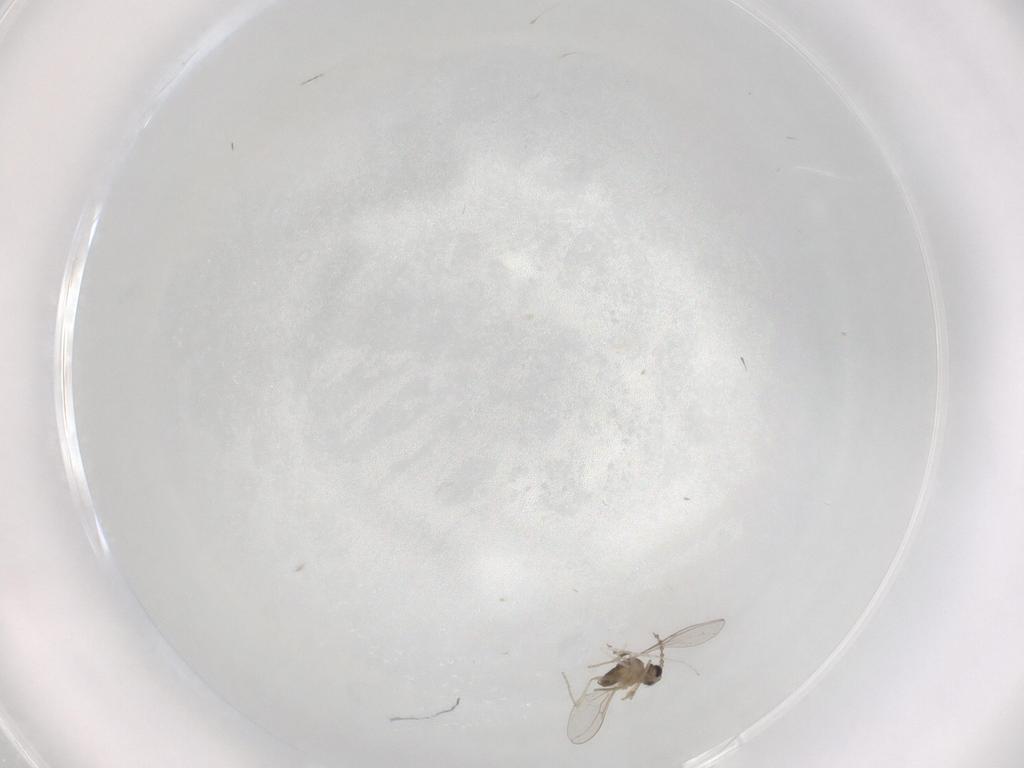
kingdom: Animalia
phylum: Arthropoda
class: Insecta
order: Diptera
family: Cecidomyiidae
